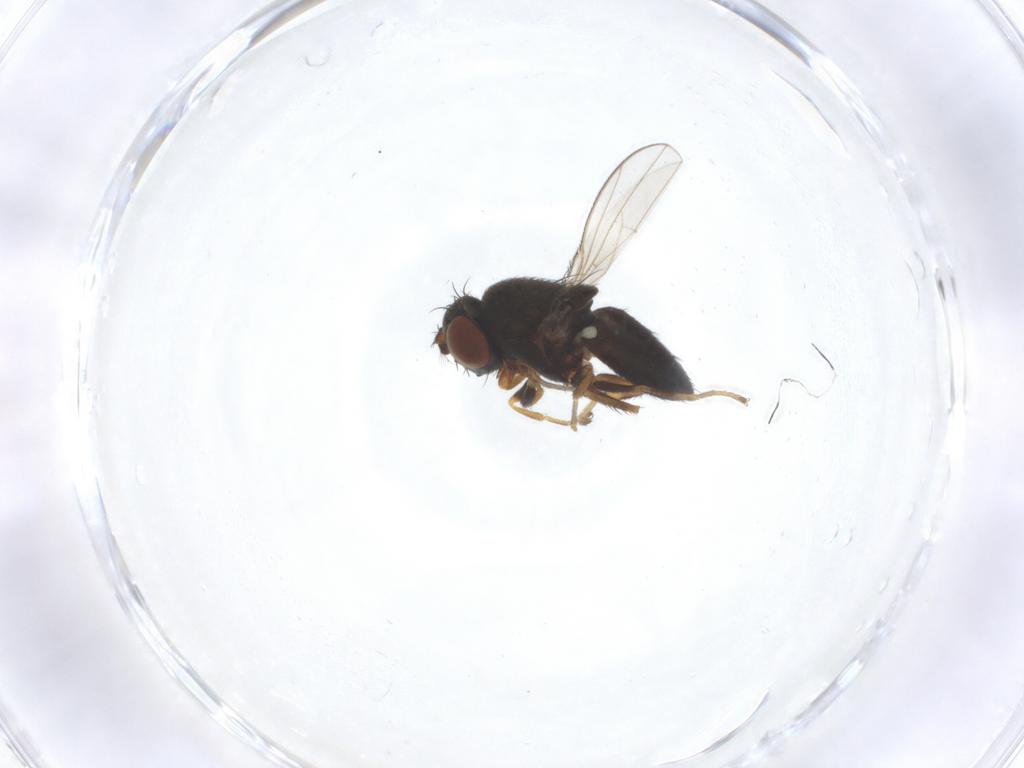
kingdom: Animalia
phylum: Arthropoda
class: Insecta
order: Diptera
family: Ephydridae
